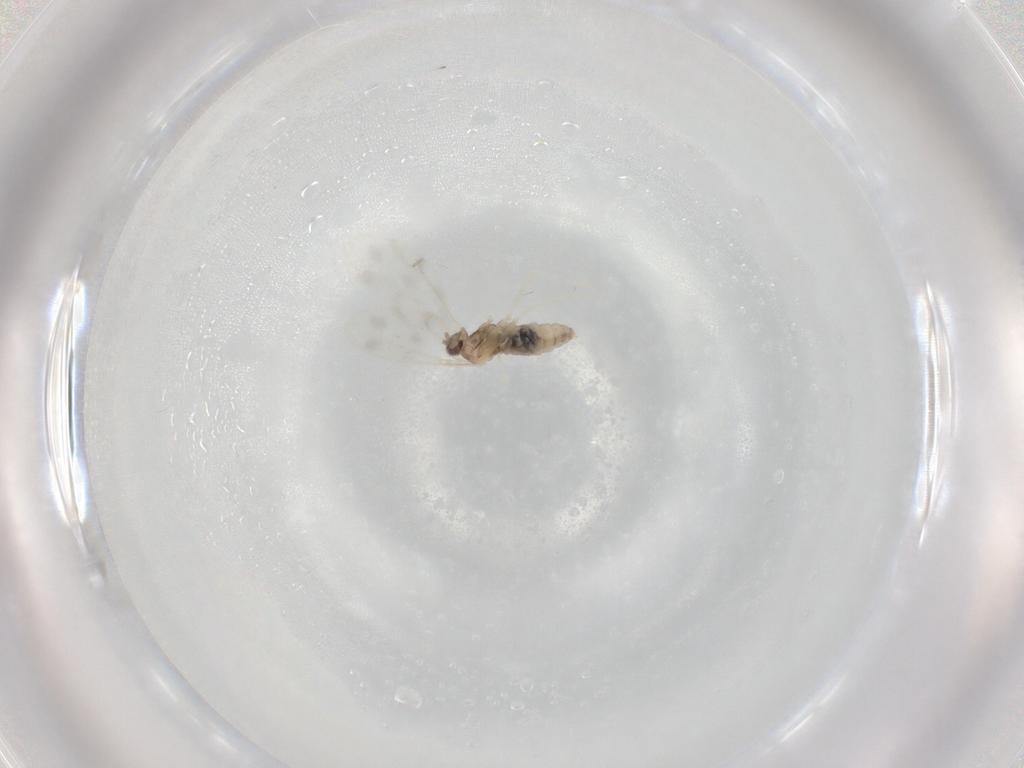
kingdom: Animalia
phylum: Arthropoda
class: Insecta
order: Diptera
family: Cecidomyiidae
